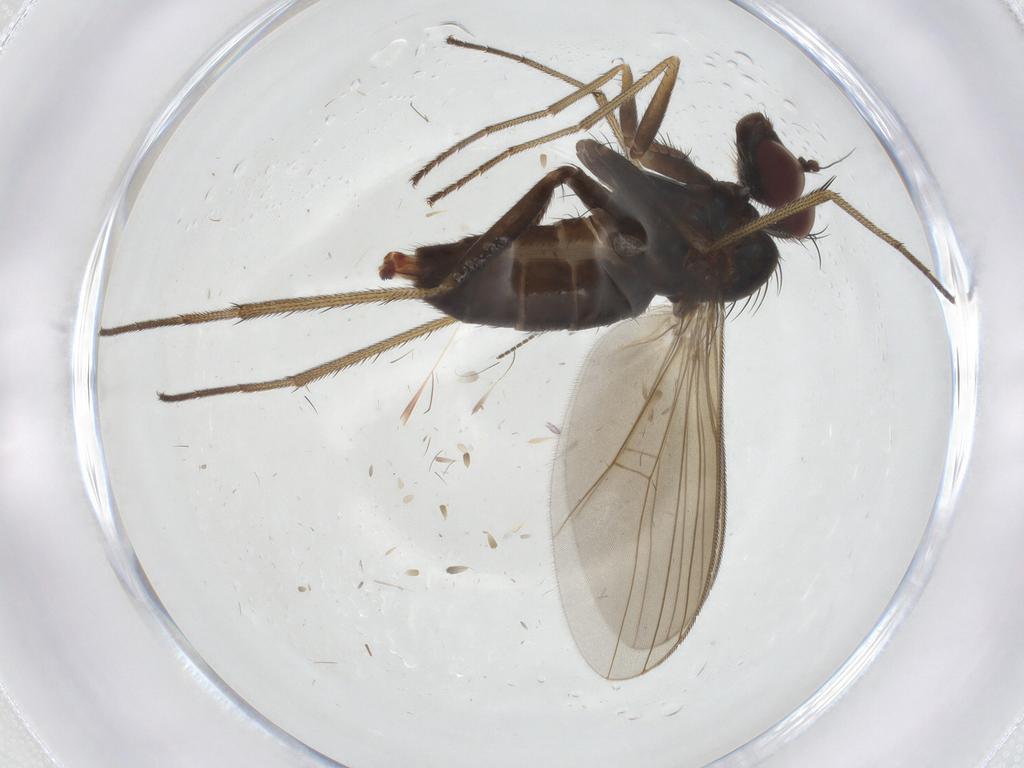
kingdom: Animalia
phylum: Arthropoda
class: Insecta
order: Diptera
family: Dolichopodidae
